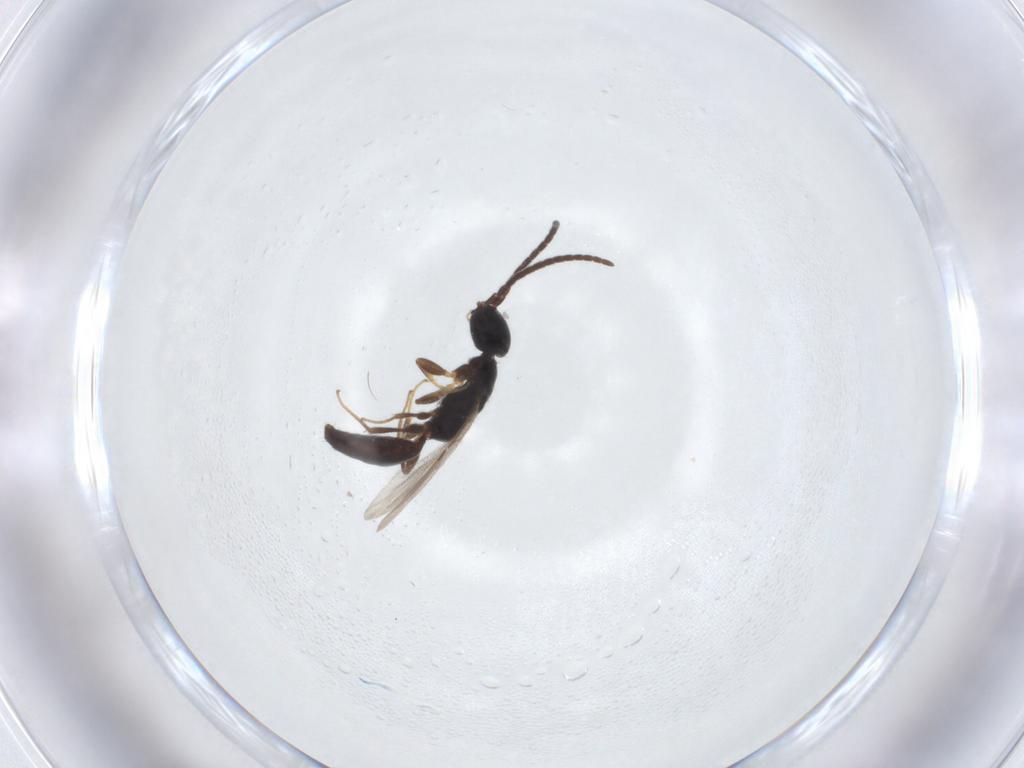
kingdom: Animalia
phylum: Arthropoda
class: Insecta
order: Hymenoptera
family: Bethylidae
